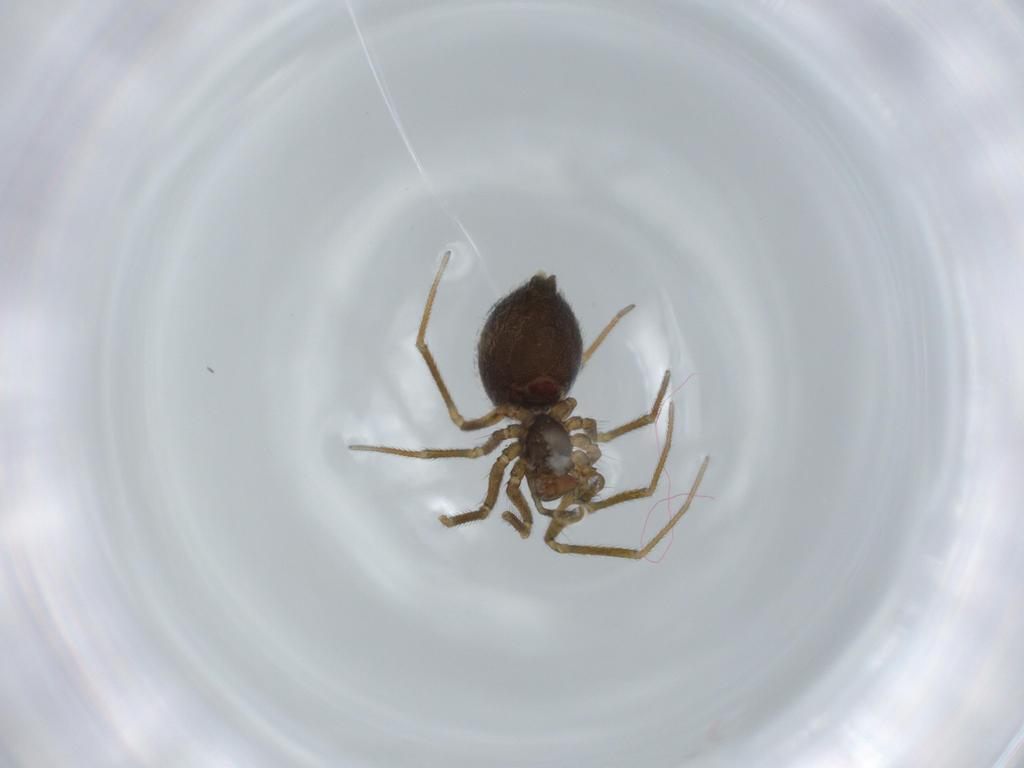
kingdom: Animalia
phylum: Arthropoda
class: Arachnida
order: Araneae
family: Linyphiidae
